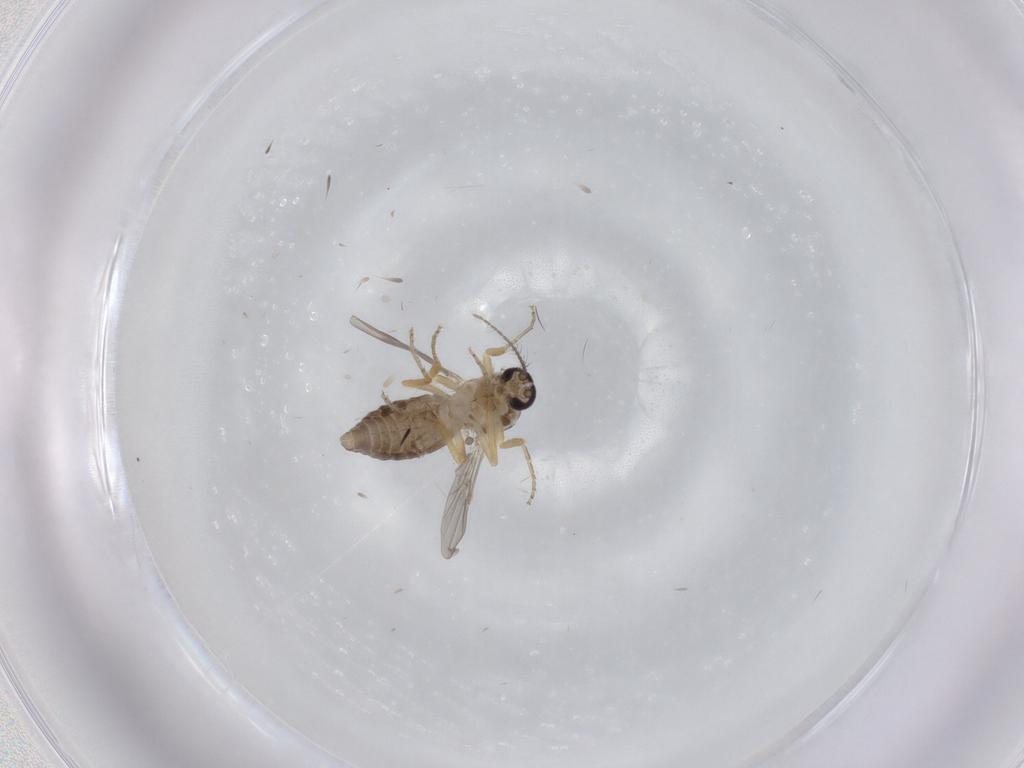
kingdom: Animalia
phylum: Arthropoda
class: Insecta
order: Diptera
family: Ceratopogonidae
